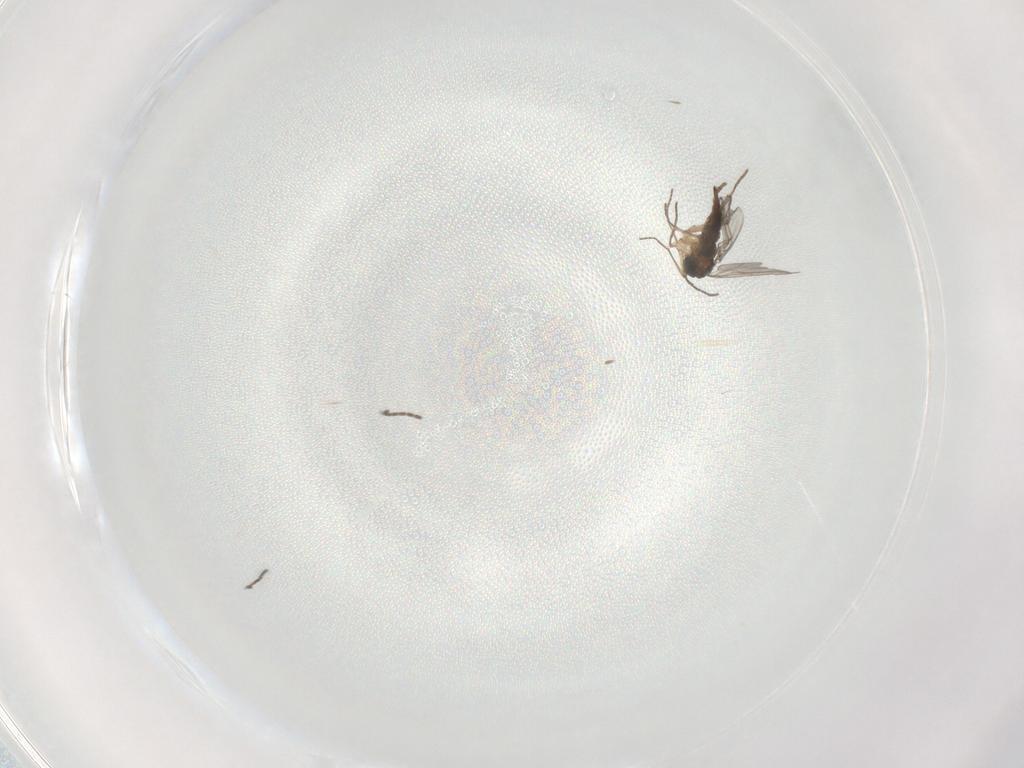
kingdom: Animalia
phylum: Arthropoda
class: Insecta
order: Diptera
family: Sciaridae
